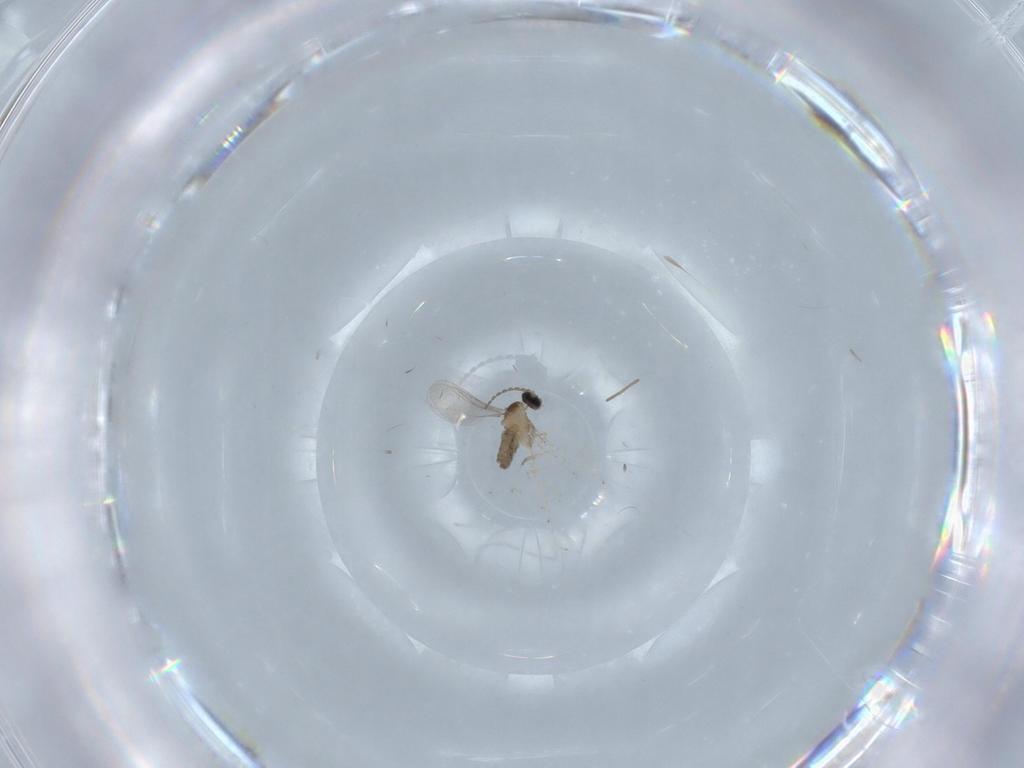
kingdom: Animalia
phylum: Arthropoda
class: Insecta
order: Diptera
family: Cecidomyiidae
